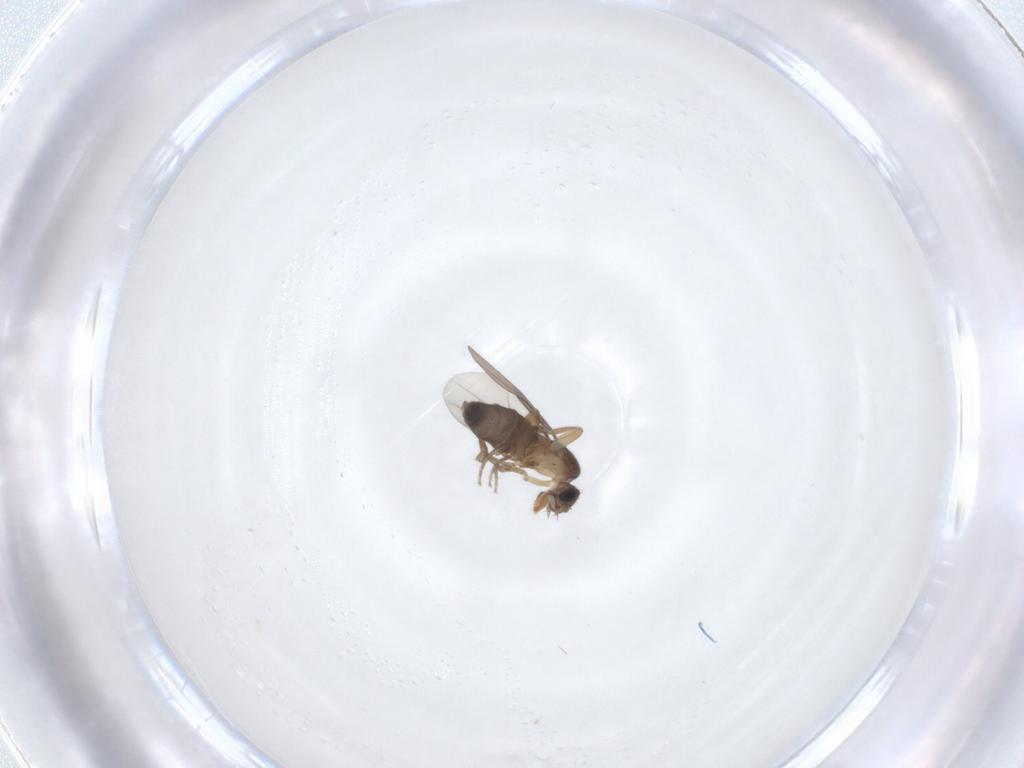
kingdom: Animalia
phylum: Arthropoda
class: Insecta
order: Diptera
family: Phoridae
